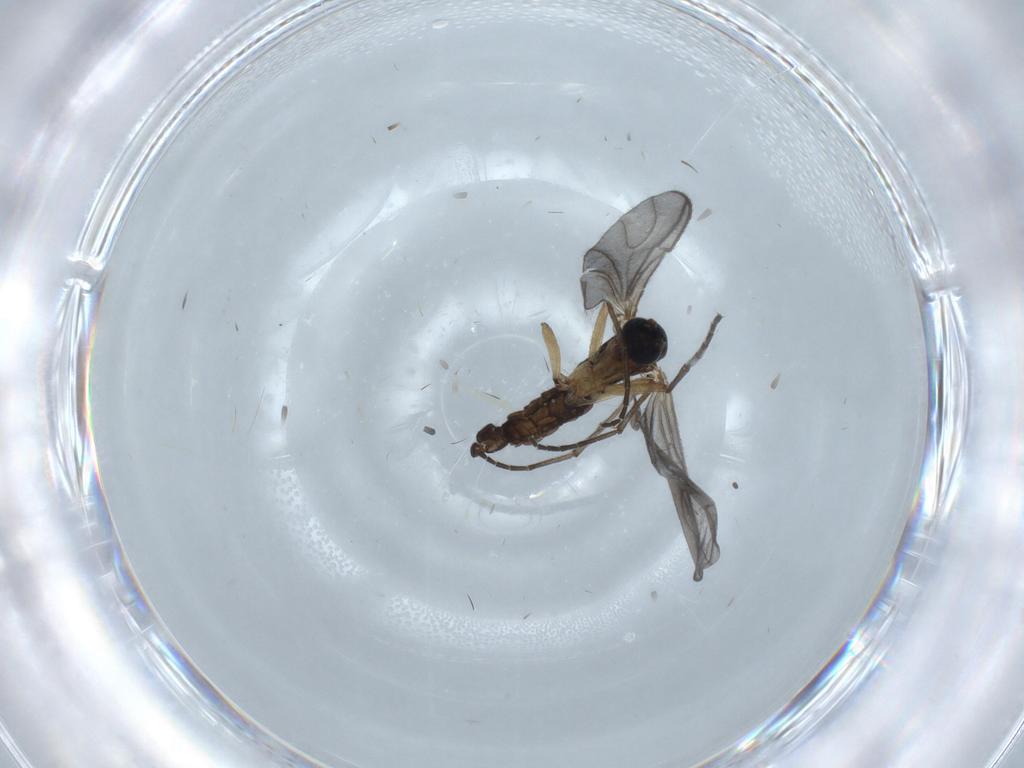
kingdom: Animalia
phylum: Arthropoda
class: Insecta
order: Diptera
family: Sciaridae
